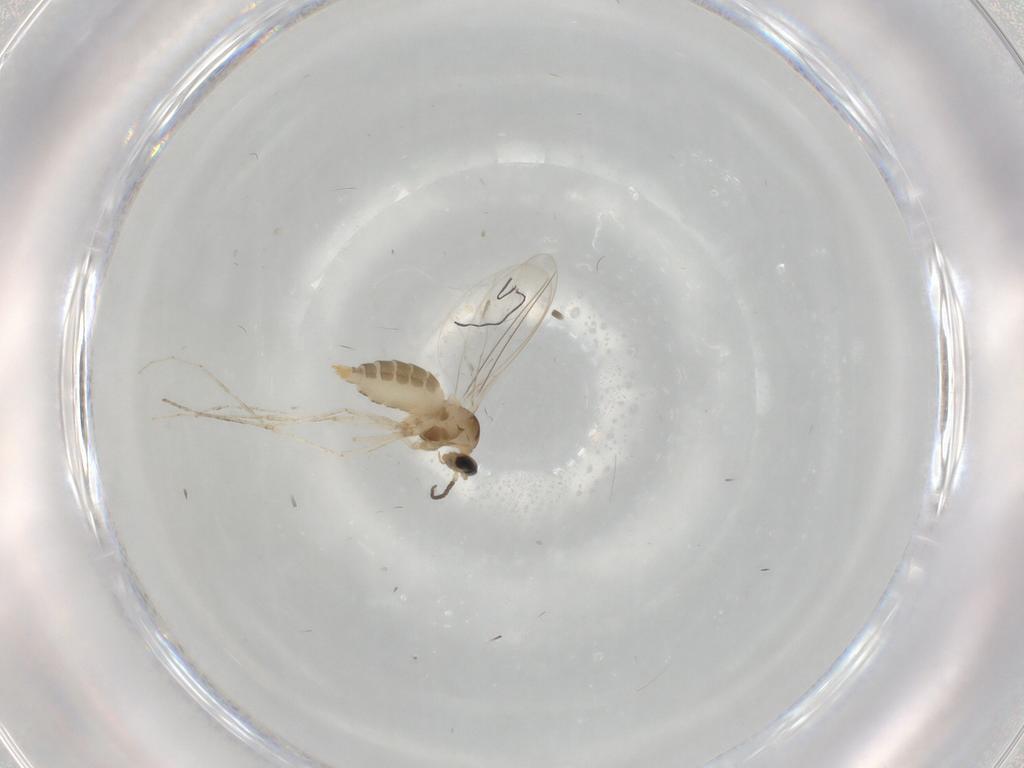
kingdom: Animalia
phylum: Arthropoda
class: Insecta
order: Diptera
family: Cecidomyiidae
